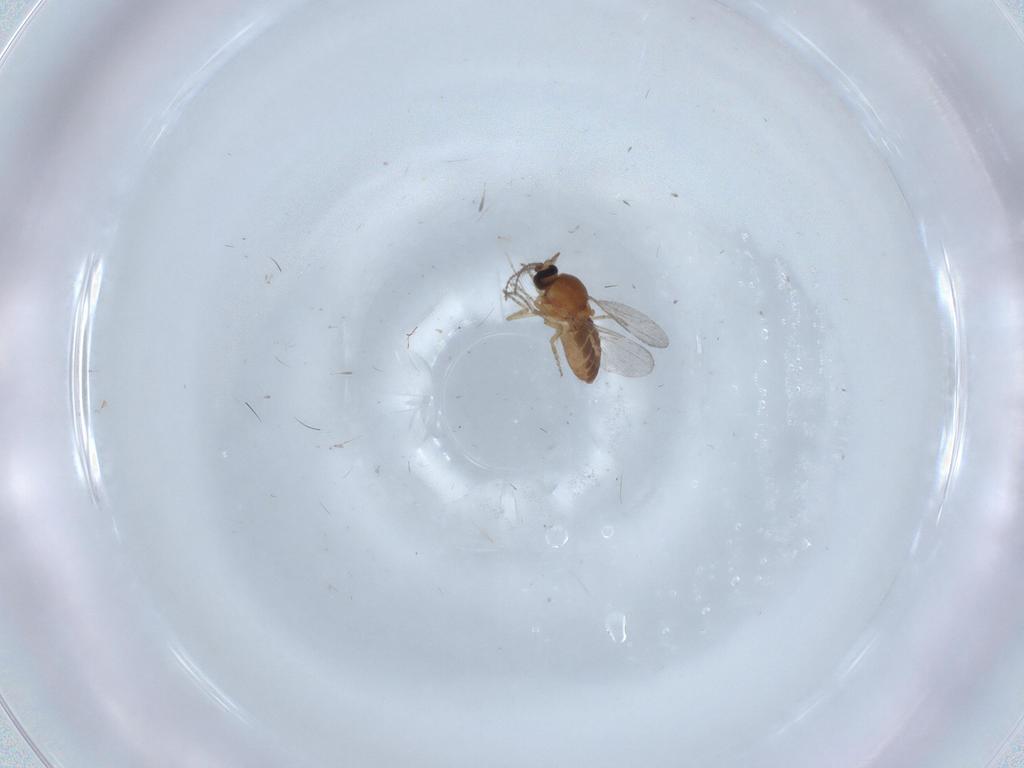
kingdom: Animalia
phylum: Arthropoda
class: Insecta
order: Diptera
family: Ceratopogonidae
